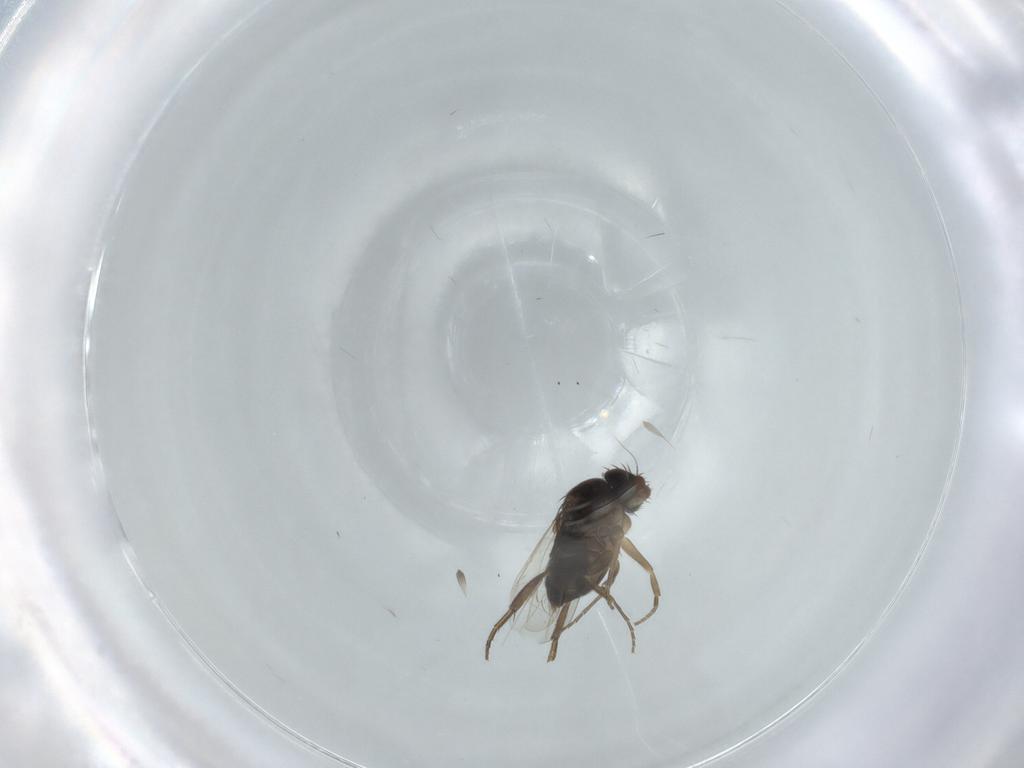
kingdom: Animalia
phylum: Arthropoda
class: Insecta
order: Diptera
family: Phoridae
